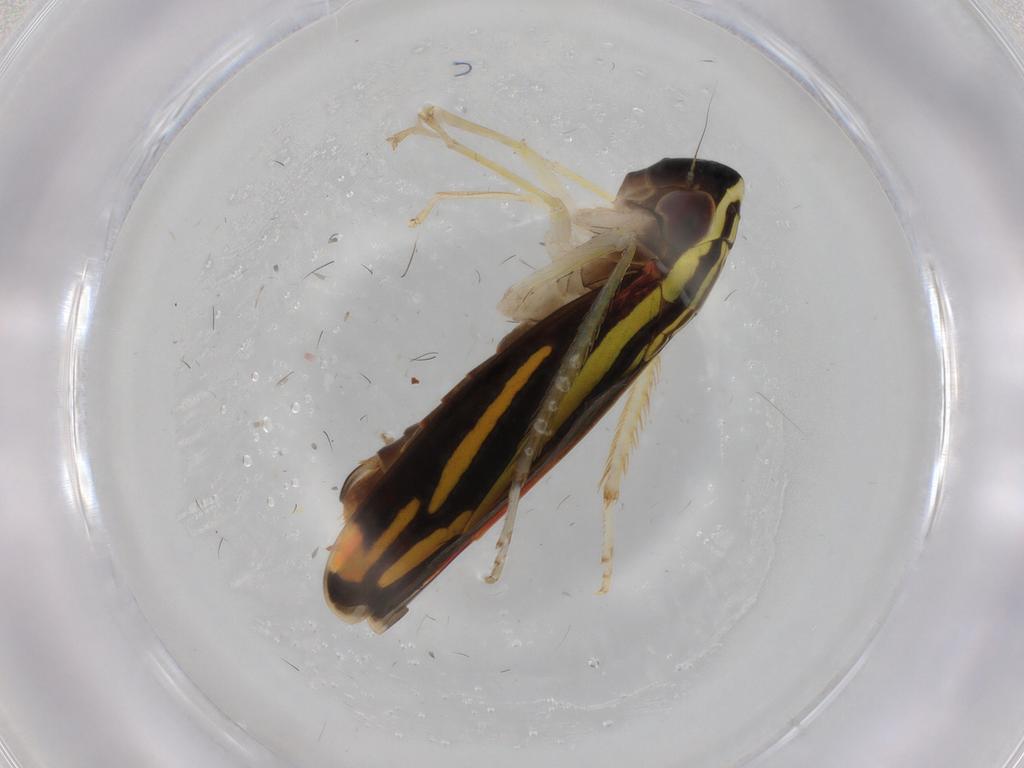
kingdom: Animalia
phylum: Arthropoda
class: Insecta
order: Hemiptera
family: Cicadellidae
